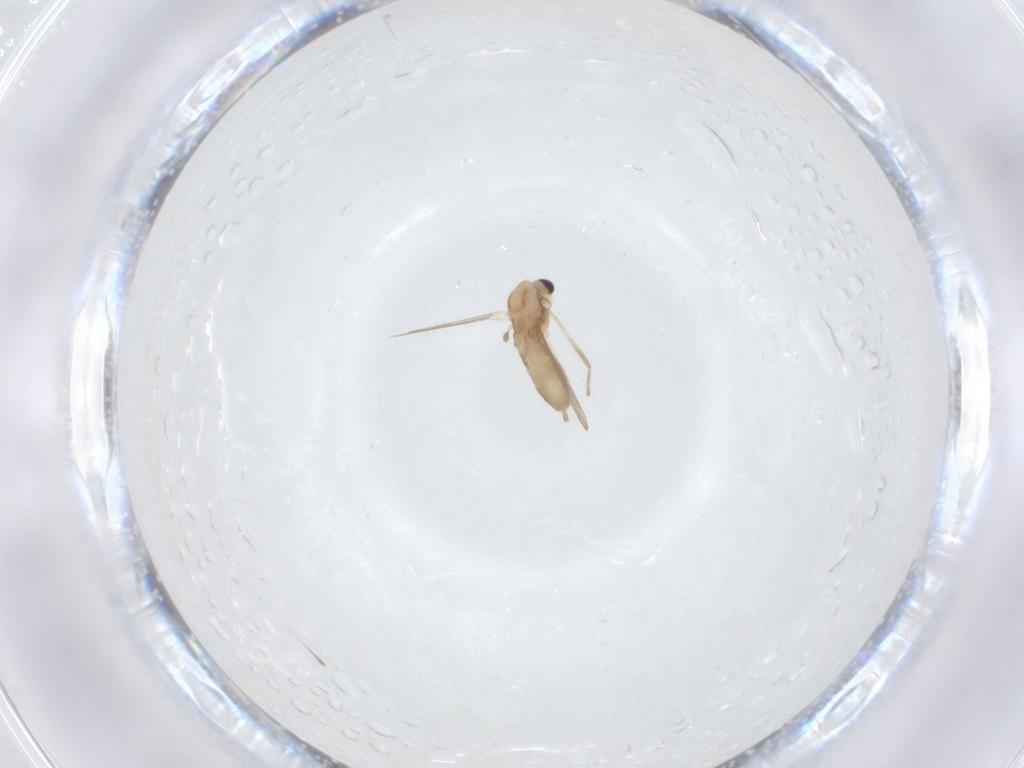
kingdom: Animalia
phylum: Arthropoda
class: Insecta
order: Diptera
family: Chironomidae
